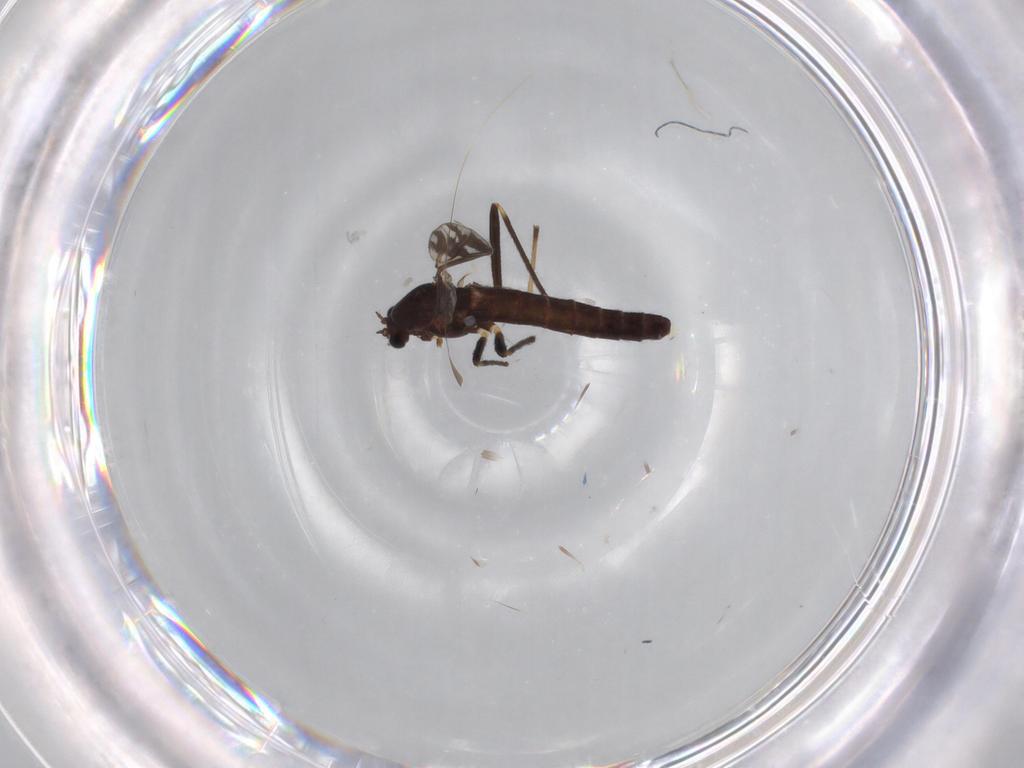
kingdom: Animalia
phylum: Arthropoda
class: Insecta
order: Diptera
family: Chironomidae
